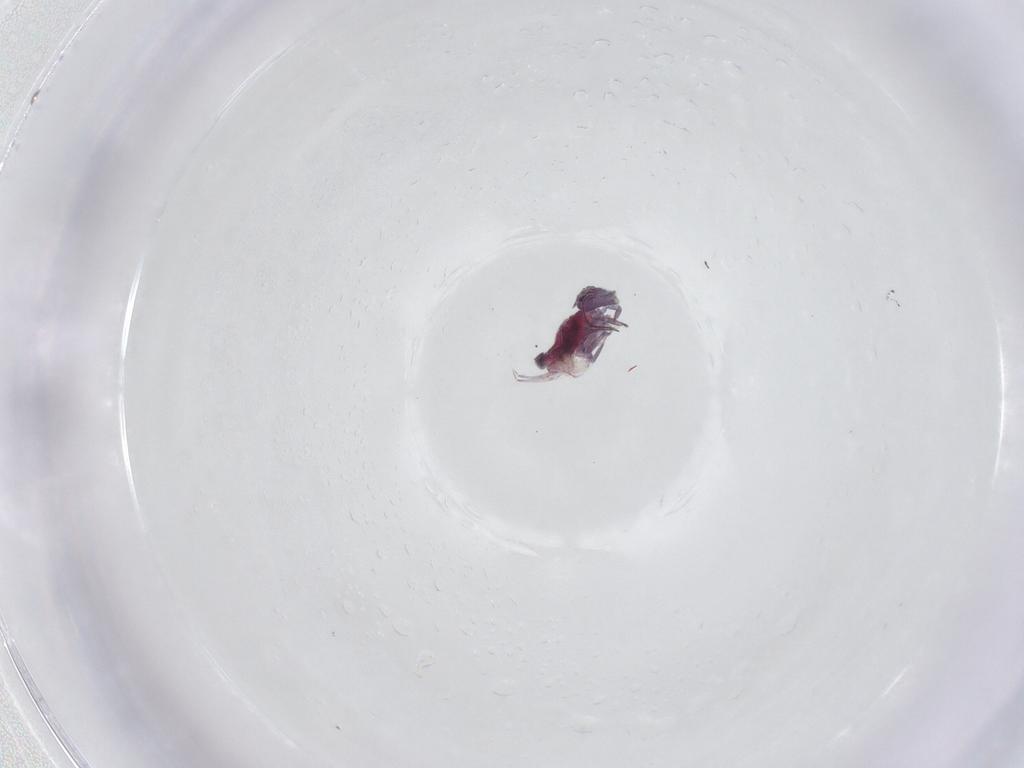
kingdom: Animalia
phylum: Arthropoda
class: Collembola
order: Symphypleona
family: Sminthuridae
